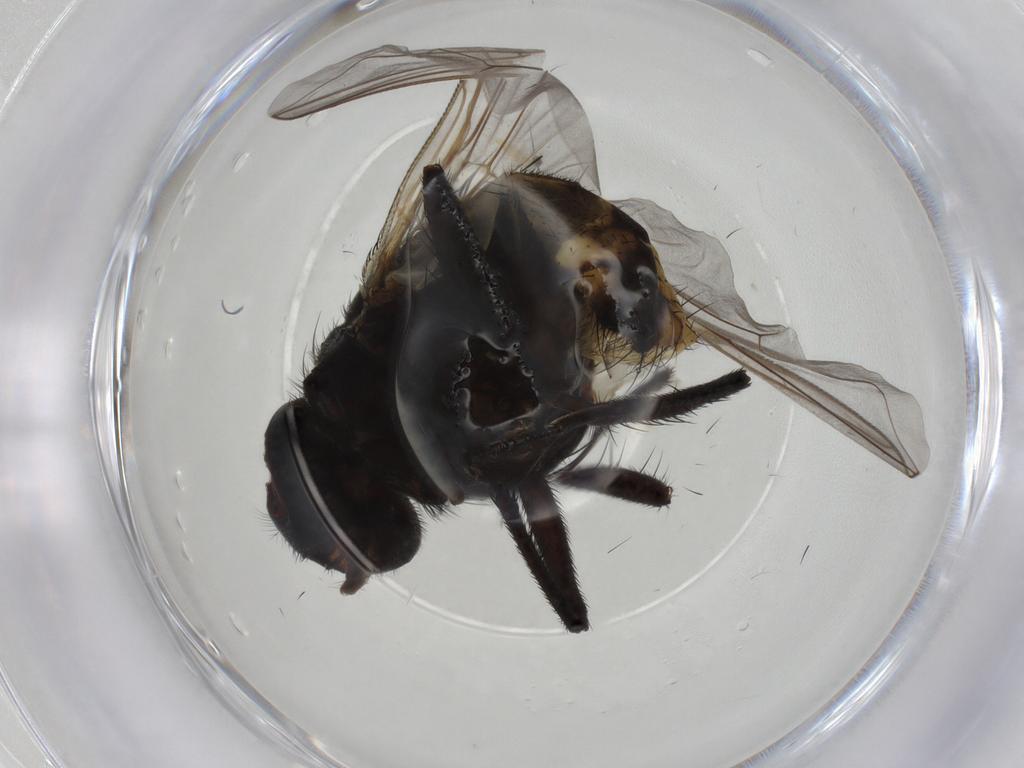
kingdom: Animalia
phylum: Arthropoda
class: Insecta
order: Diptera
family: Muscidae
